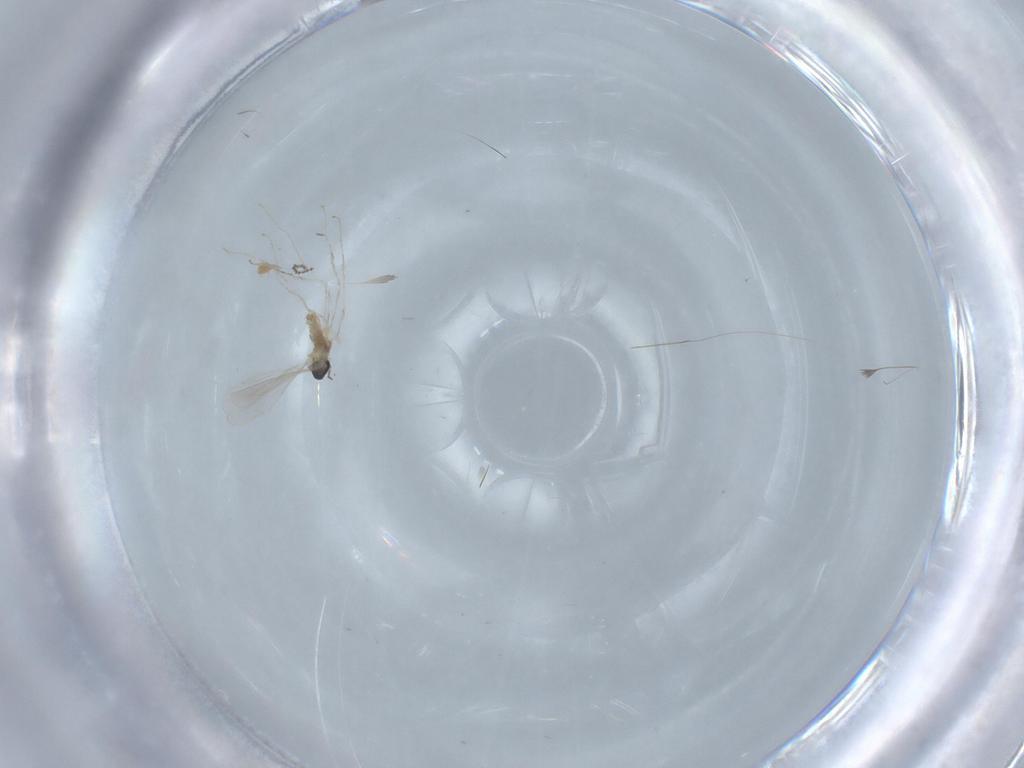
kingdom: Animalia
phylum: Arthropoda
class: Insecta
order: Diptera
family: Cecidomyiidae
